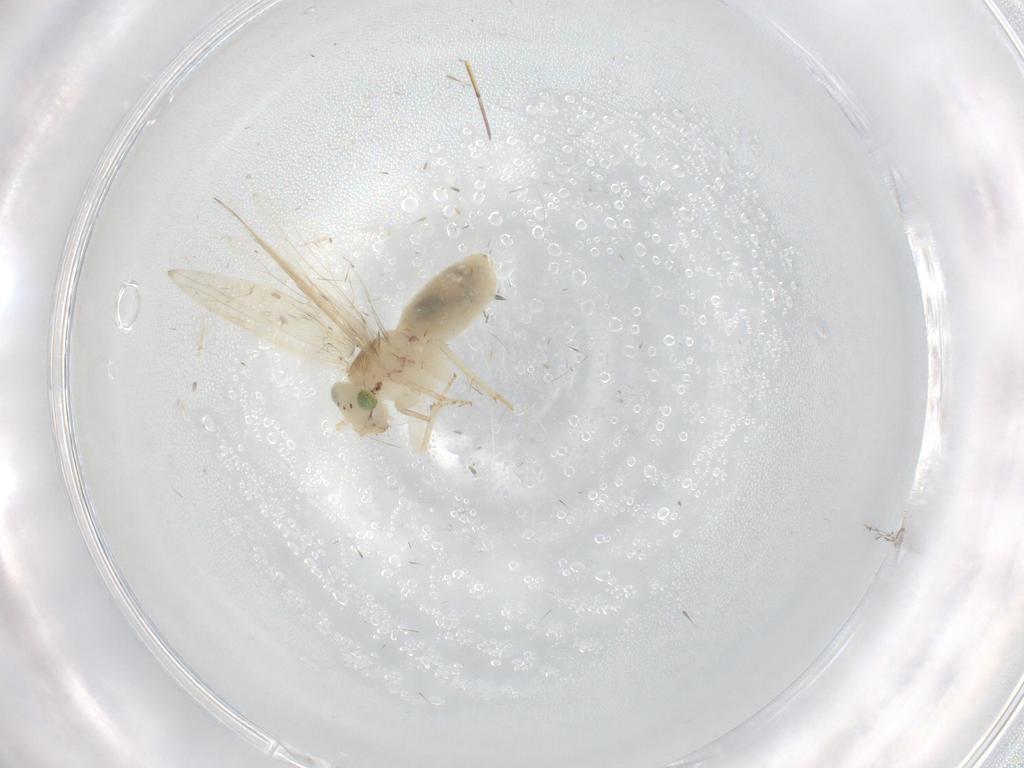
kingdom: Animalia
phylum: Arthropoda
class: Insecta
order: Psocodea
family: Lepidopsocidae
